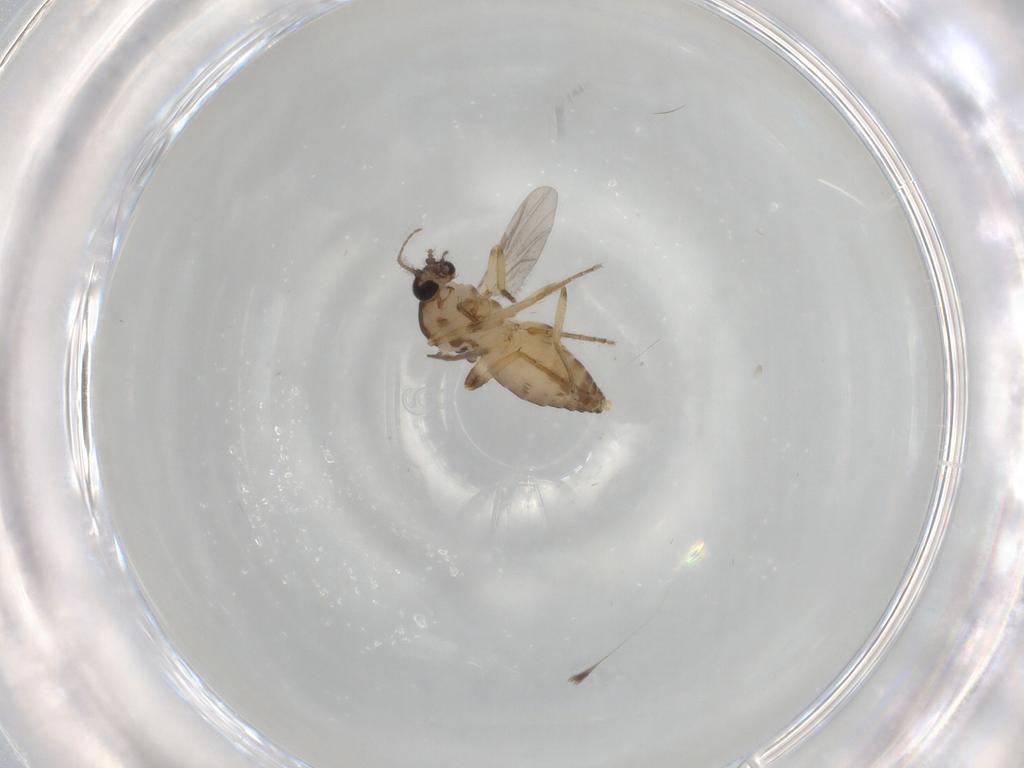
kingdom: Animalia
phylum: Arthropoda
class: Insecta
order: Diptera
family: Ceratopogonidae
